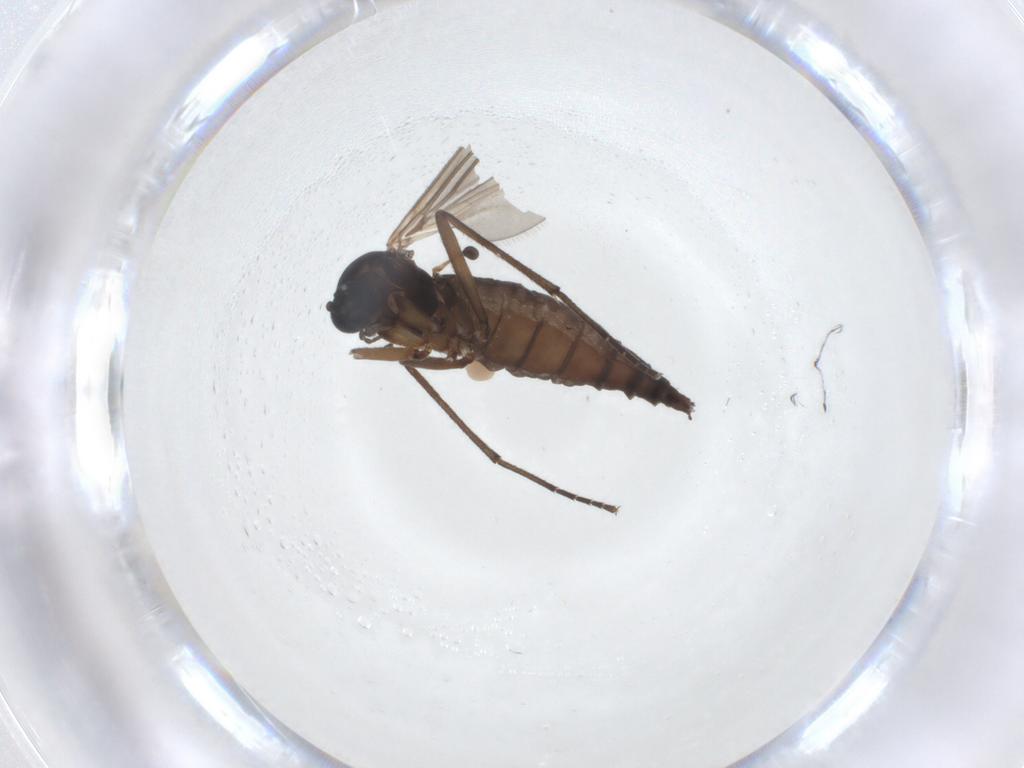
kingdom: Animalia
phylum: Arthropoda
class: Insecta
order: Diptera
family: Sciaridae
